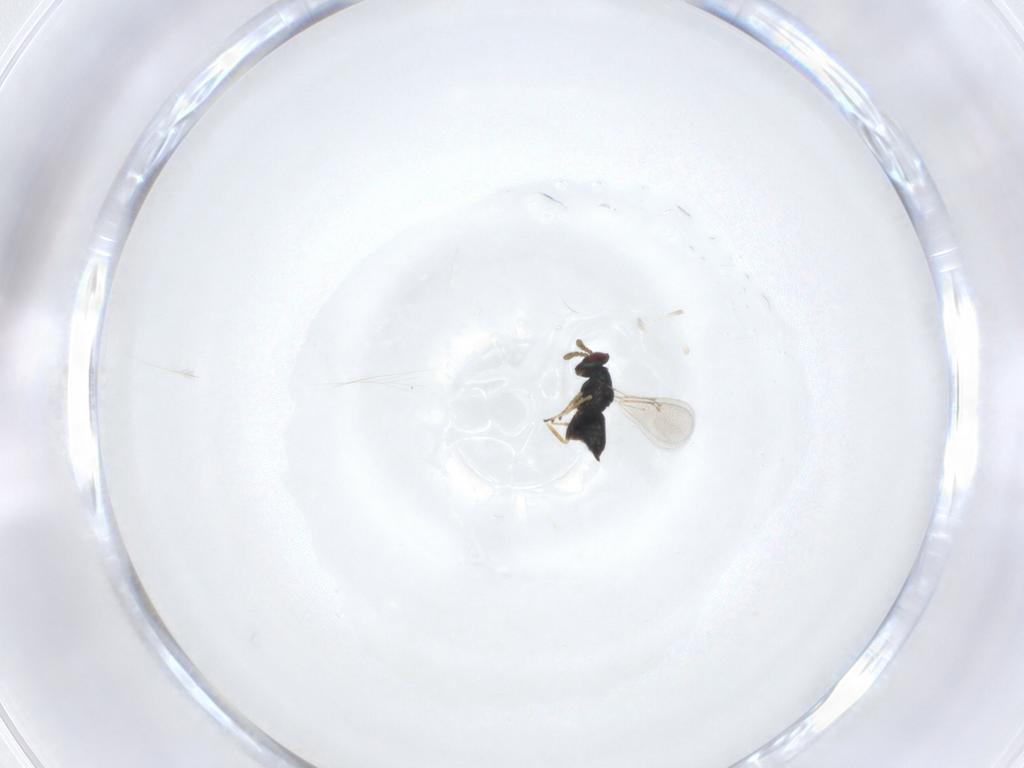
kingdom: Animalia
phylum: Arthropoda
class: Insecta
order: Hymenoptera
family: Eulophidae
